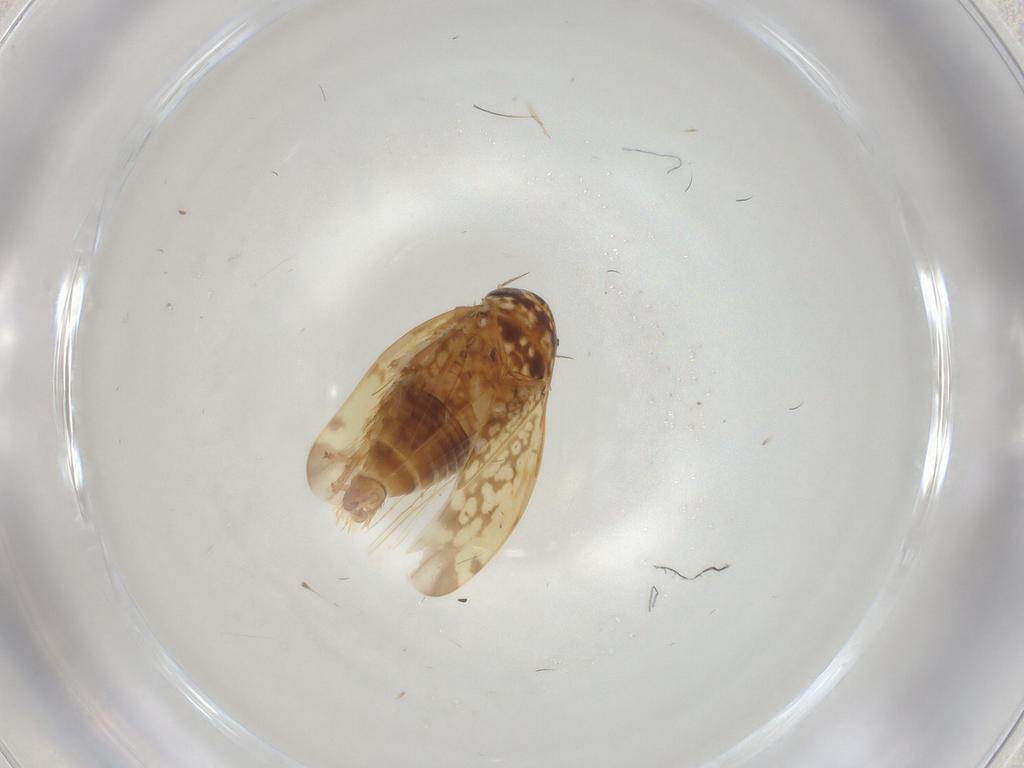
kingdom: Animalia
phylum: Arthropoda
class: Insecta
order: Hemiptera
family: Cicadellidae
